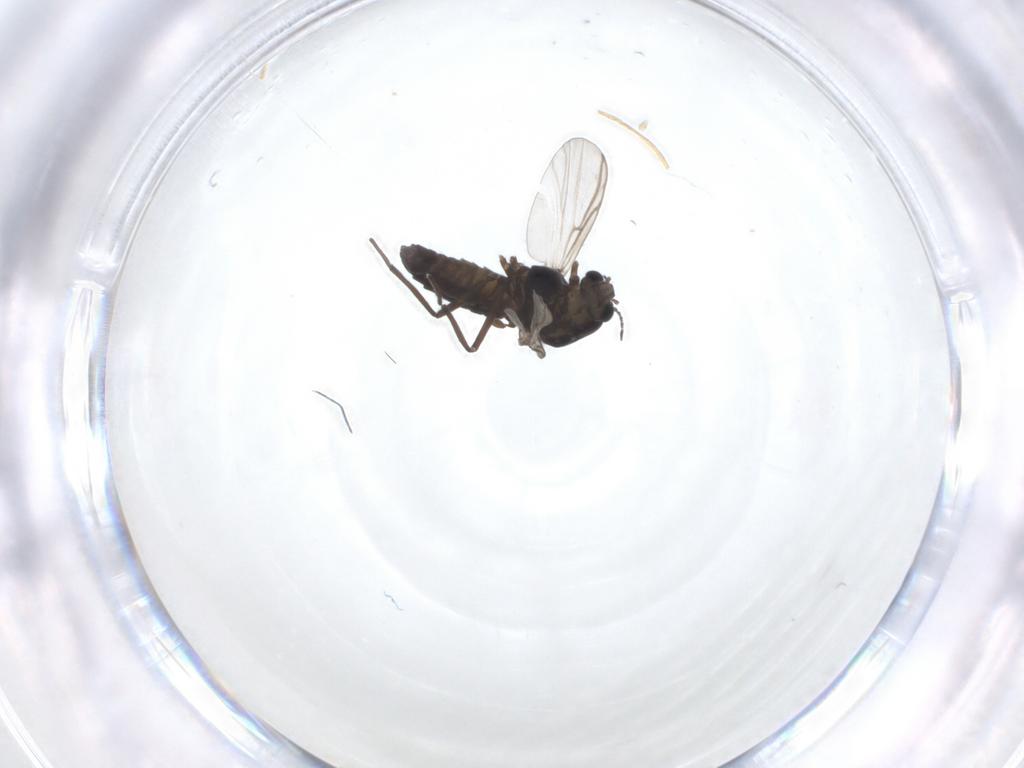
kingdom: Animalia
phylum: Arthropoda
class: Insecta
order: Diptera
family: Chironomidae
